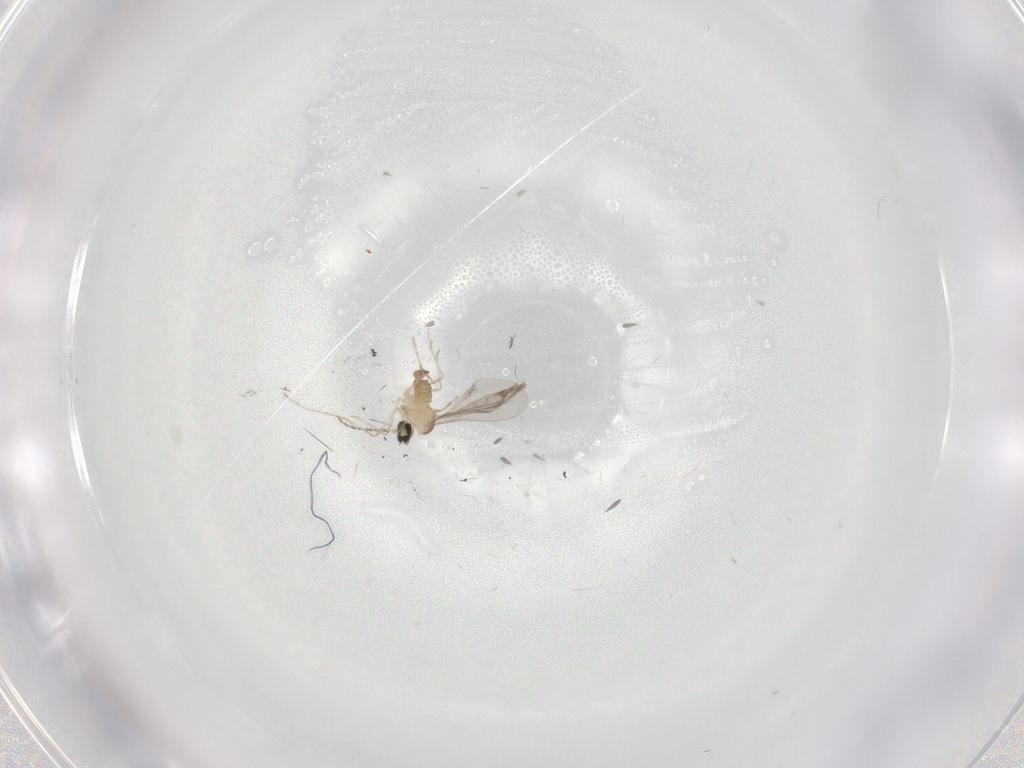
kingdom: Animalia
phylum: Arthropoda
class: Insecta
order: Diptera
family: Cecidomyiidae
